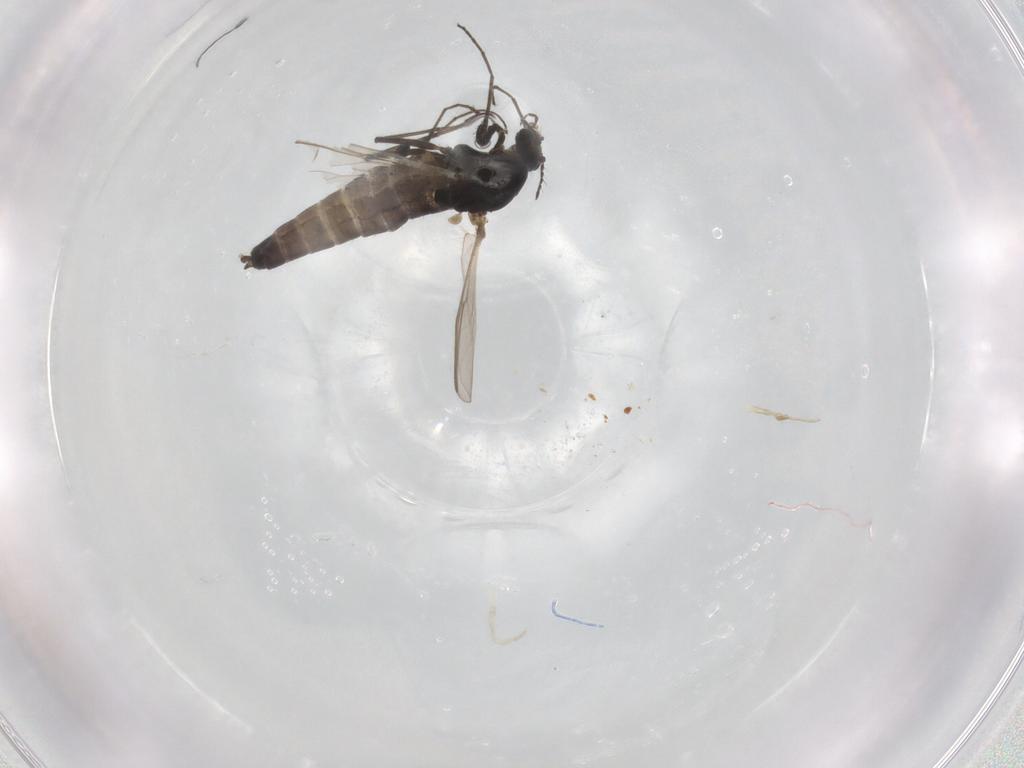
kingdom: Animalia
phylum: Arthropoda
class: Insecta
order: Diptera
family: Chironomidae
